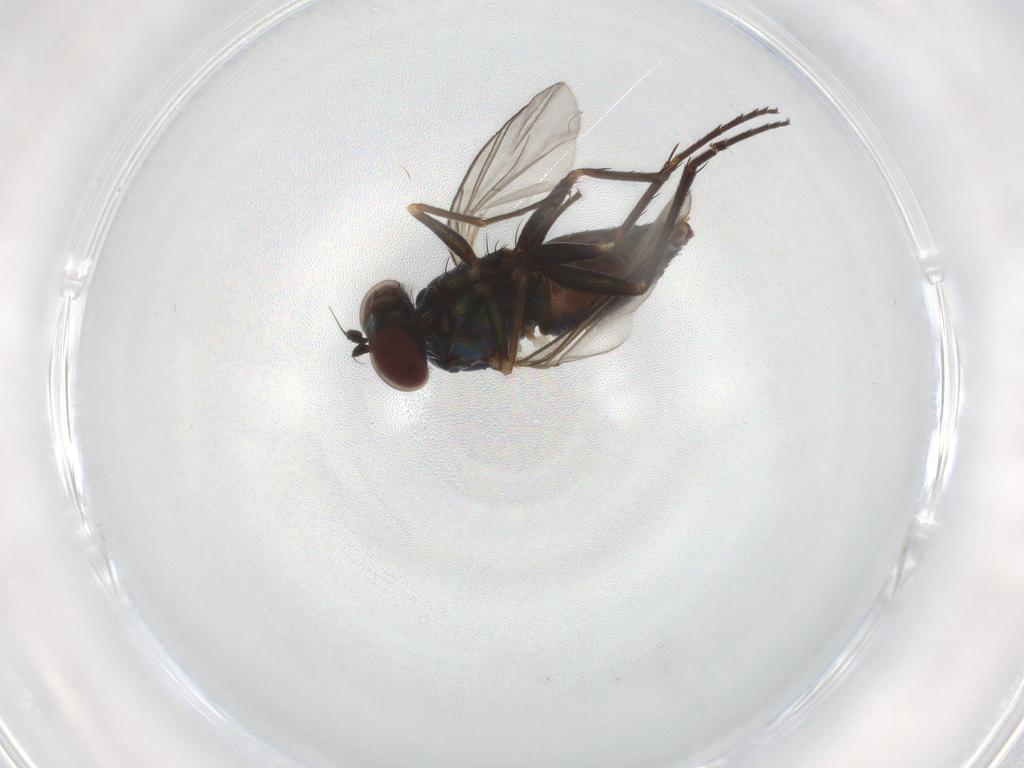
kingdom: Animalia
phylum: Arthropoda
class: Insecta
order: Diptera
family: Dolichopodidae
